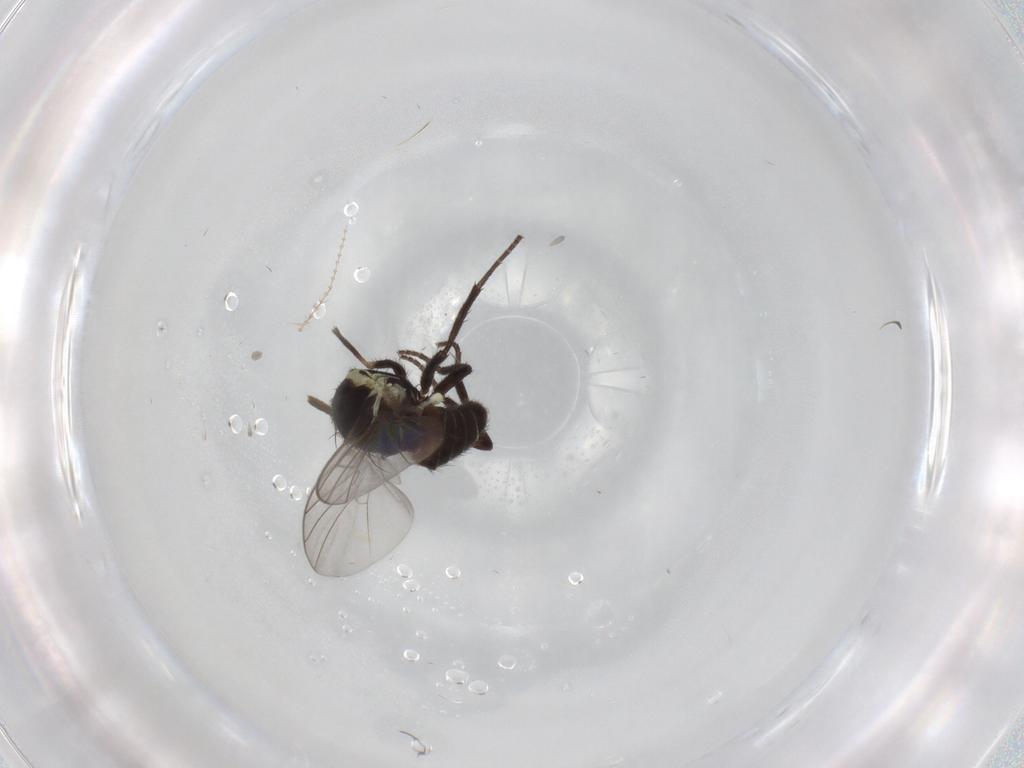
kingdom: Animalia
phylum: Arthropoda
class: Insecta
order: Diptera
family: Agromyzidae
